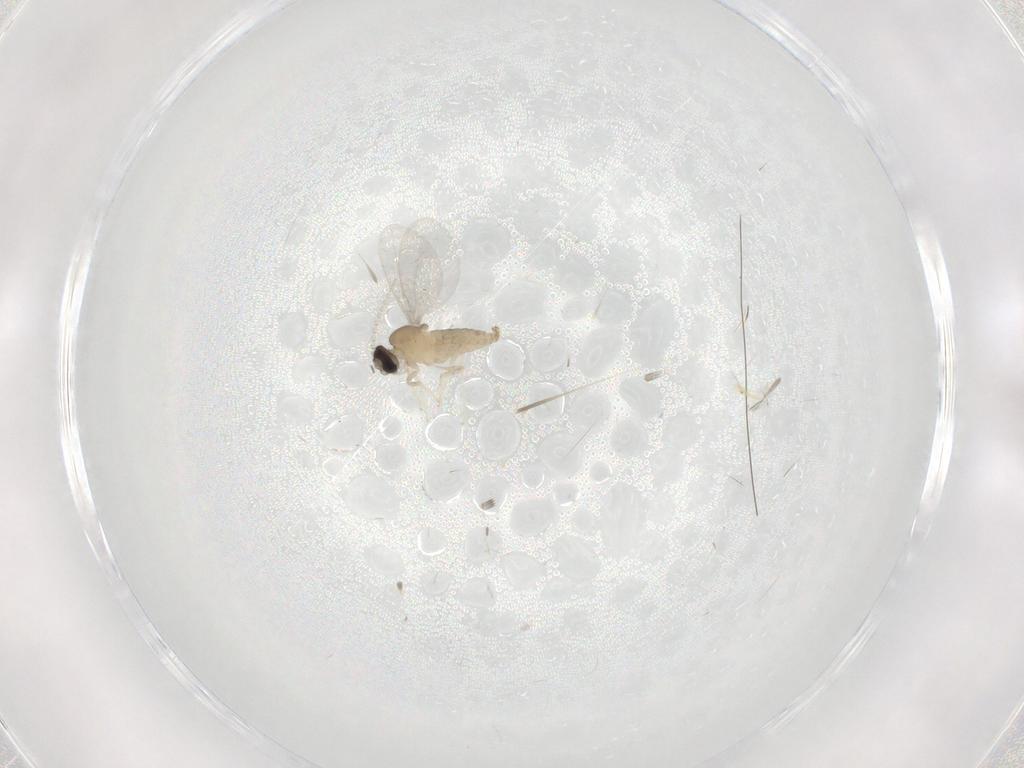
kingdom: Animalia
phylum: Arthropoda
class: Insecta
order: Diptera
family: Cecidomyiidae
